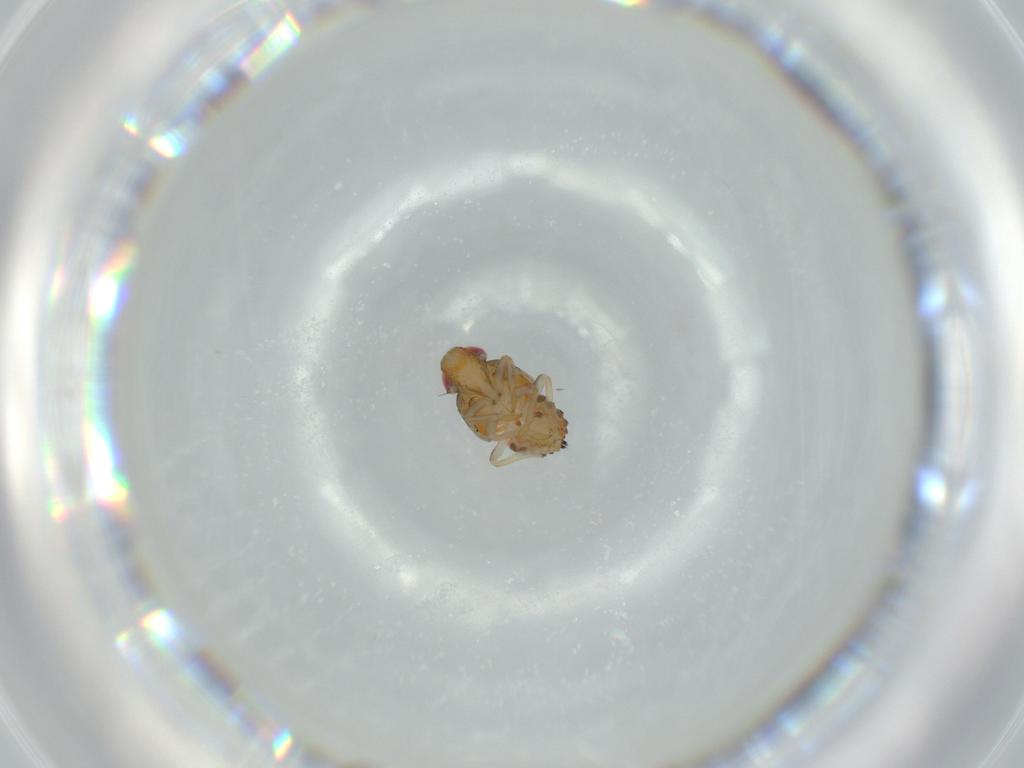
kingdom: Animalia
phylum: Arthropoda
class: Insecta
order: Hemiptera
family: Issidae
